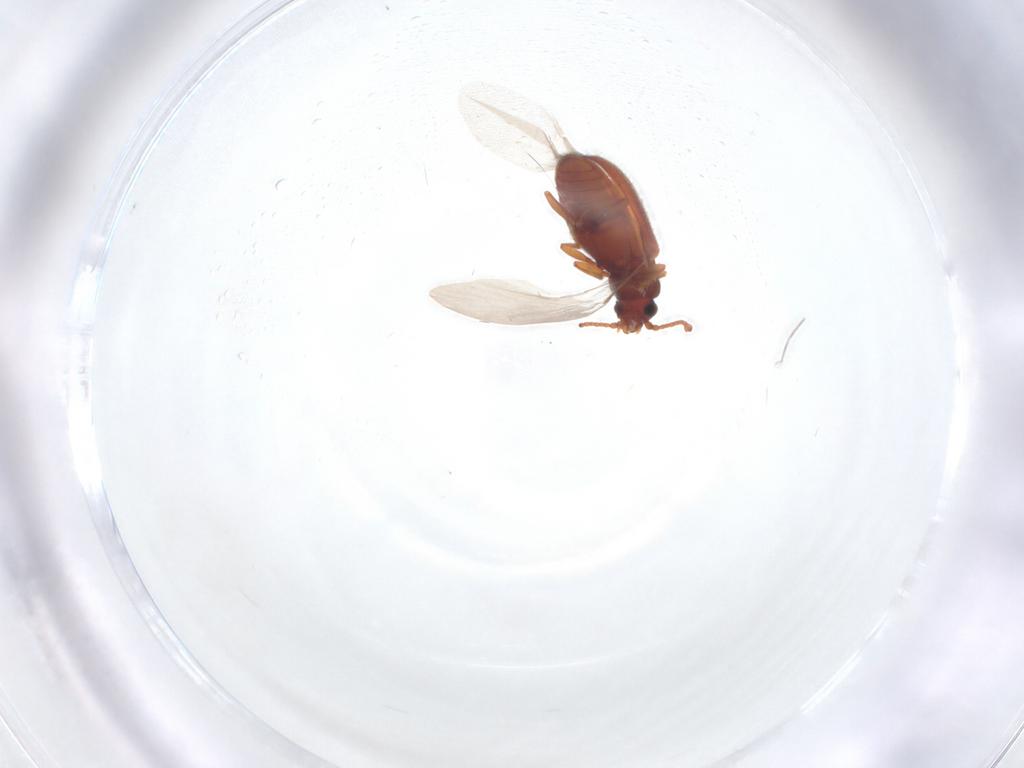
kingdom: Animalia
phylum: Arthropoda
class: Insecta
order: Coleoptera
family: Cryptophagidae
